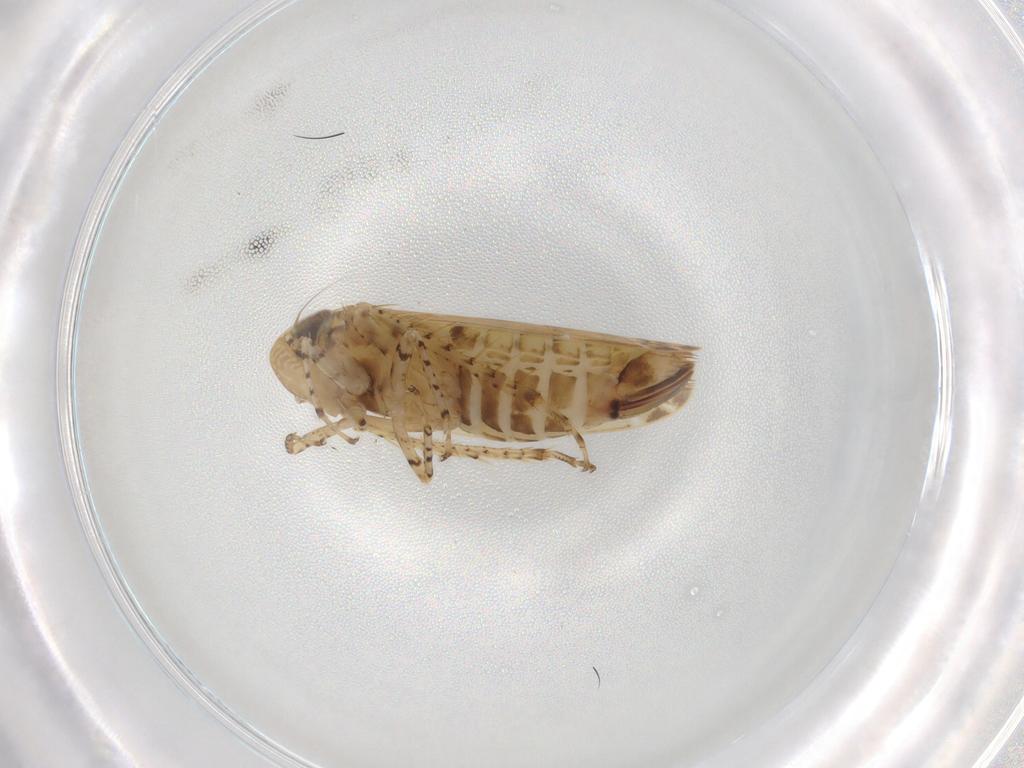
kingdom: Animalia
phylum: Arthropoda
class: Insecta
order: Hemiptera
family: Cicadellidae
